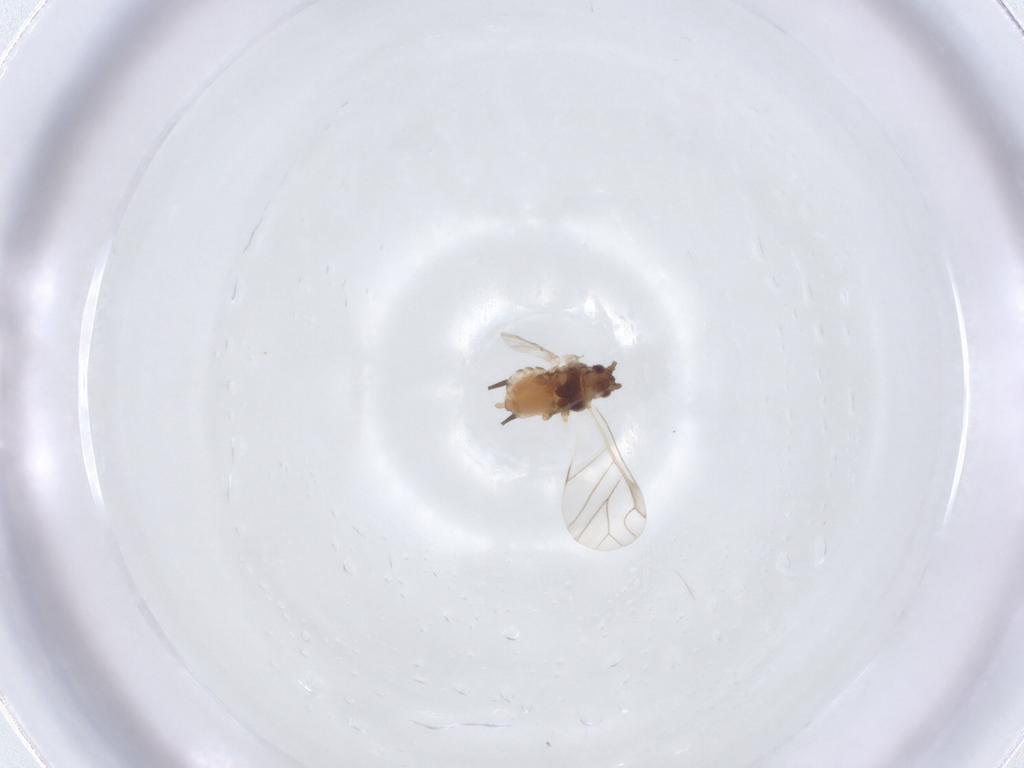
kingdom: Animalia
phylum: Arthropoda
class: Insecta
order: Hemiptera
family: Aphididae
